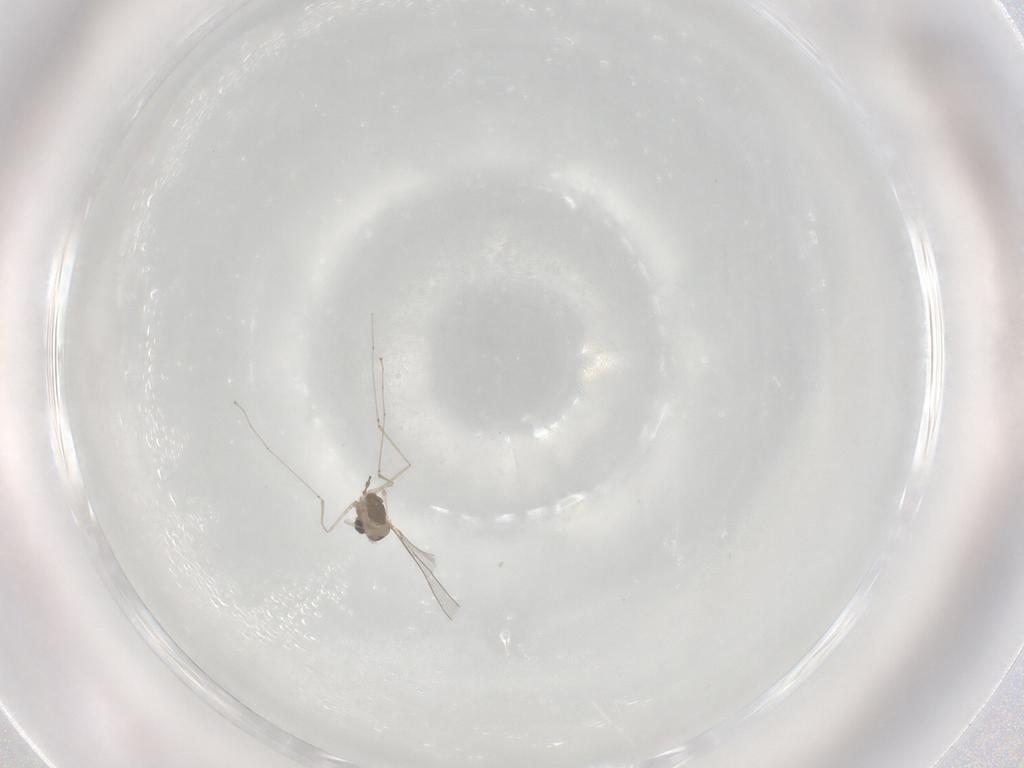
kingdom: Animalia
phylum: Arthropoda
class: Insecta
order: Diptera
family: Cecidomyiidae
